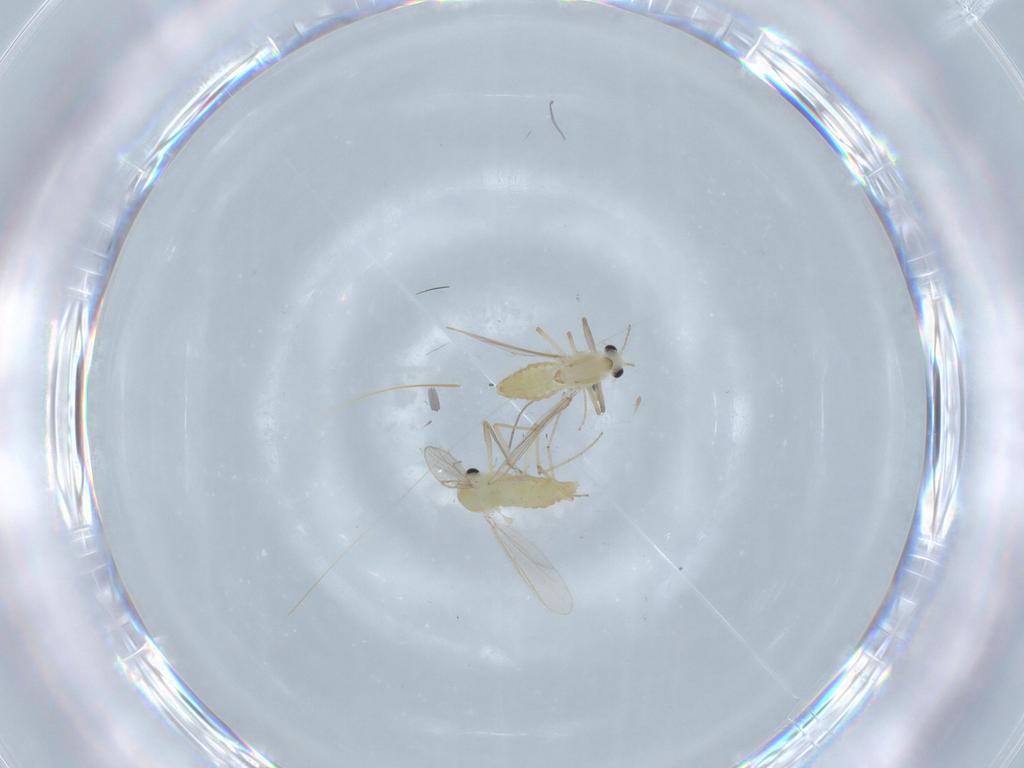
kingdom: Animalia
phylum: Arthropoda
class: Insecta
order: Diptera
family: Chironomidae
